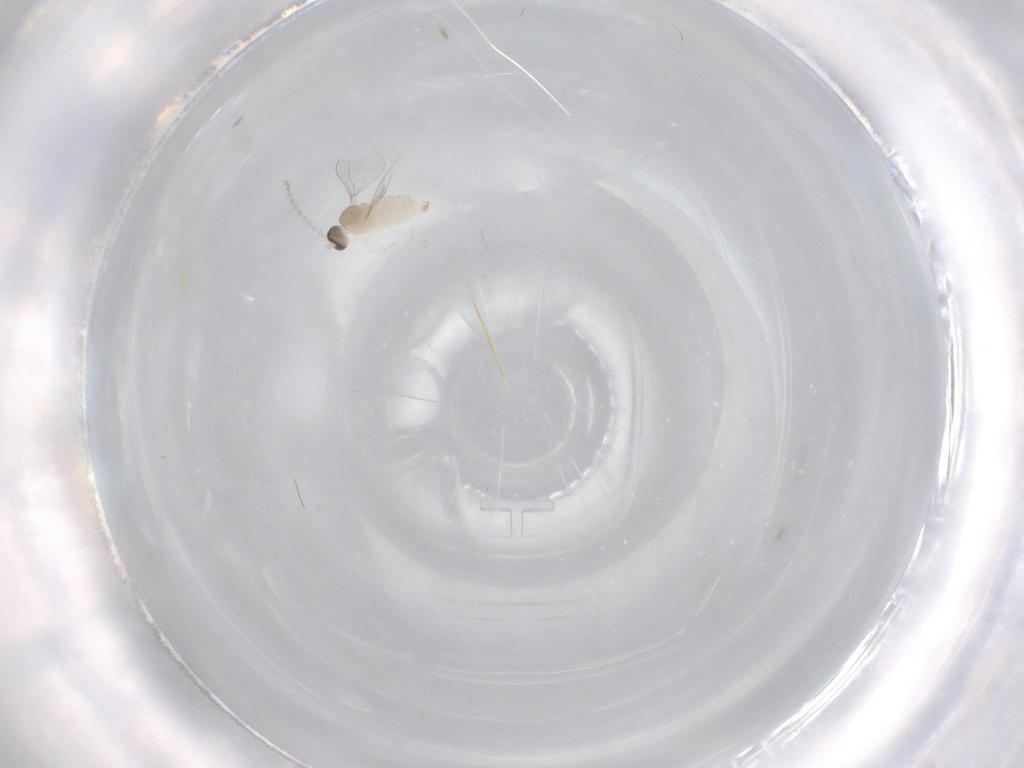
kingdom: Animalia
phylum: Arthropoda
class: Insecta
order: Diptera
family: Cecidomyiidae
